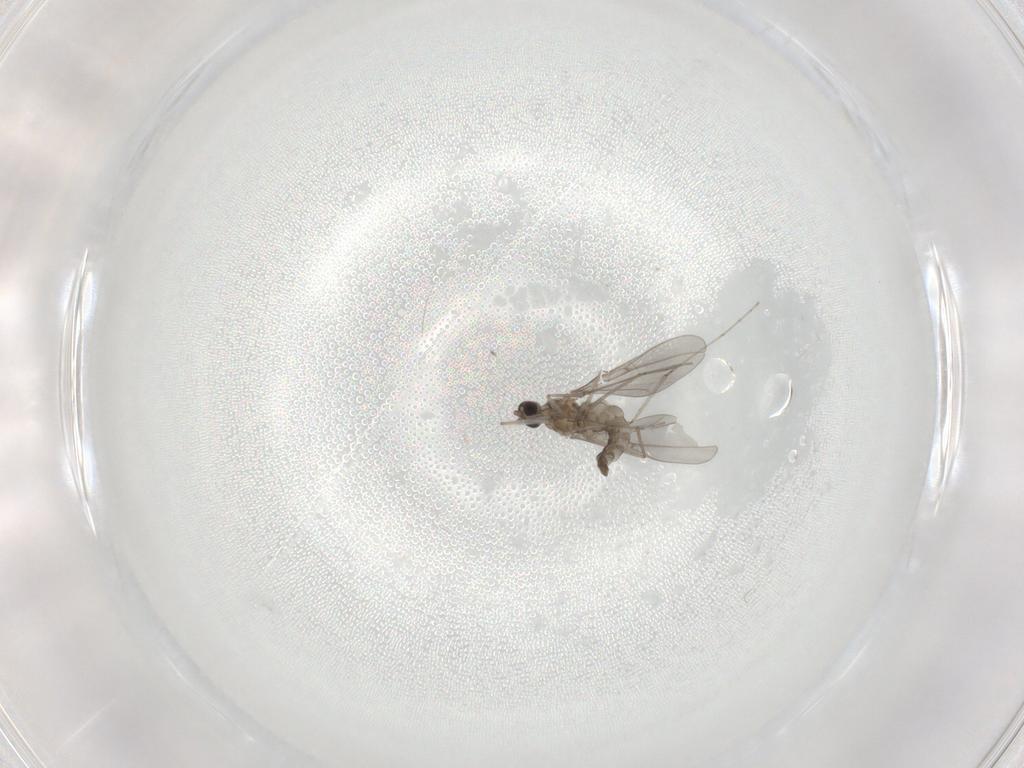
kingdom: Animalia
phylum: Arthropoda
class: Insecta
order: Diptera
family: Cecidomyiidae
